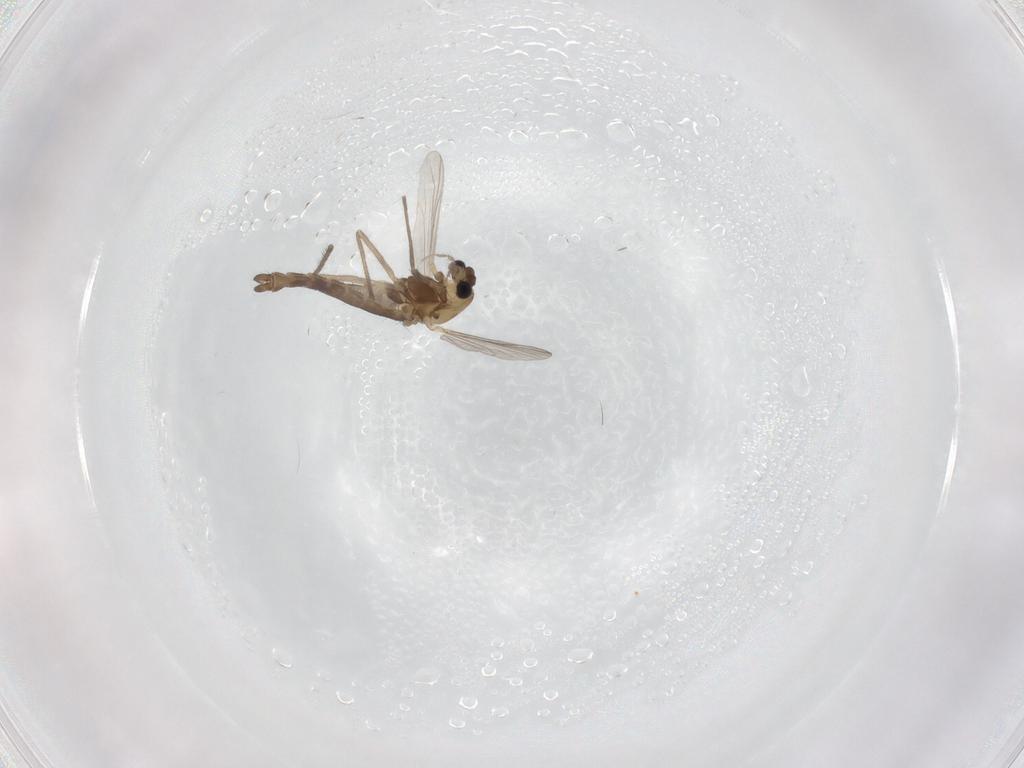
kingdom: Animalia
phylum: Arthropoda
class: Insecta
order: Diptera
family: Chironomidae
